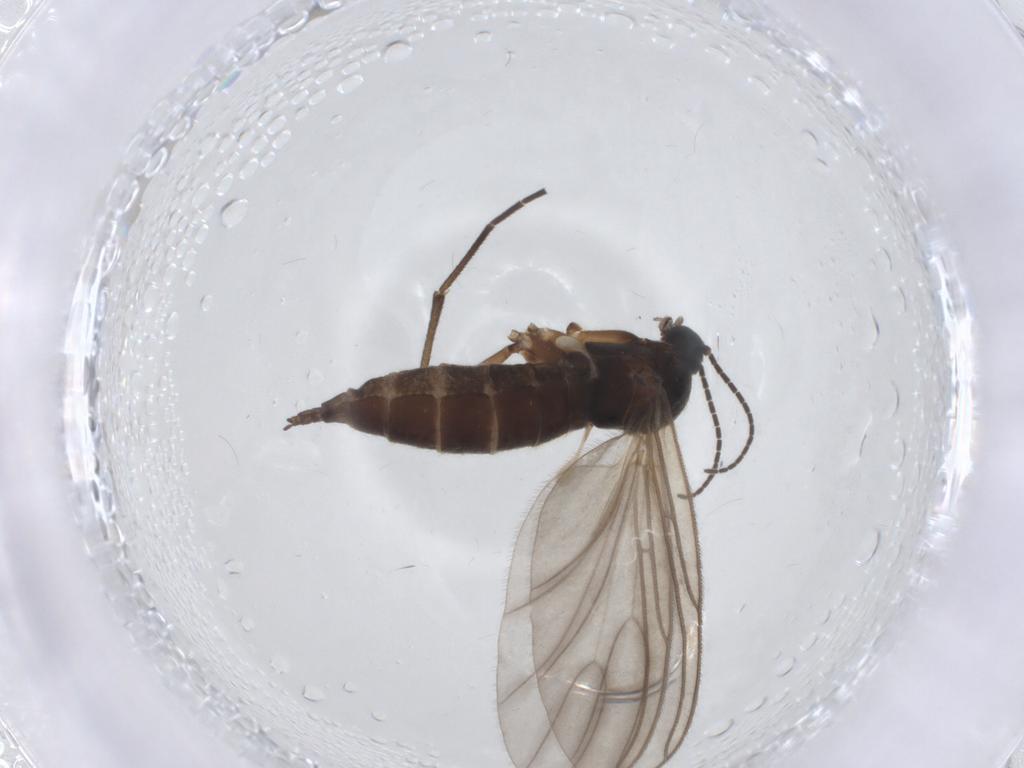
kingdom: Animalia
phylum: Arthropoda
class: Insecta
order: Diptera
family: Sciaridae
